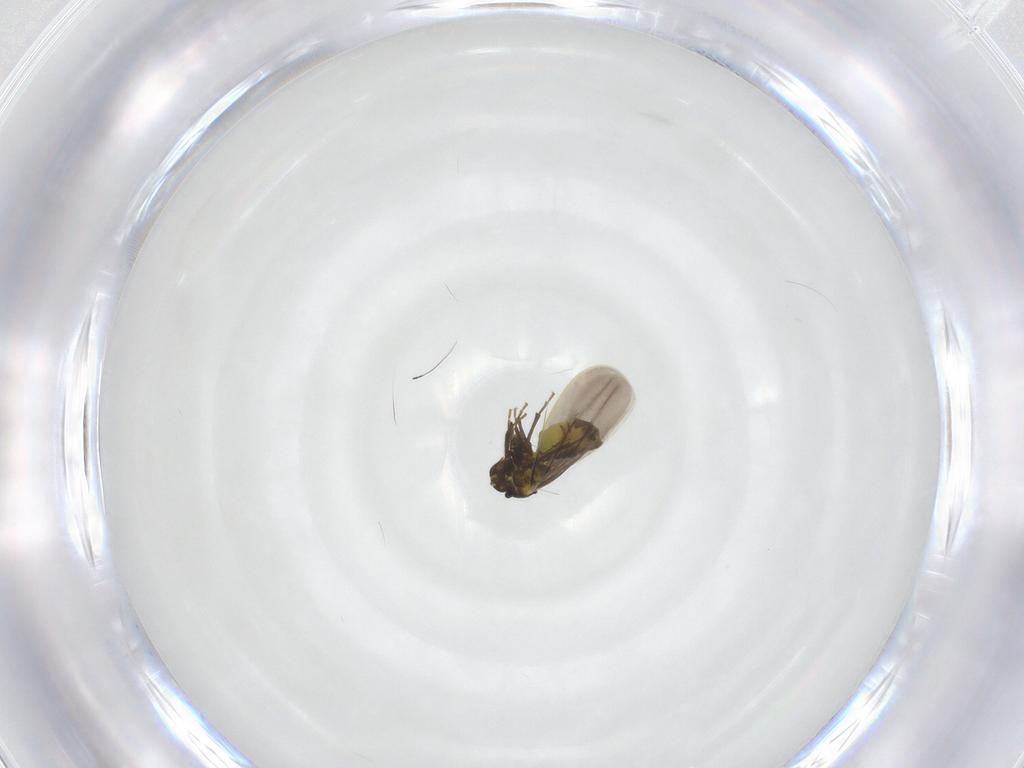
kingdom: Animalia
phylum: Arthropoda
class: Insecta
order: Hemiptera
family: Aleyrodidae
